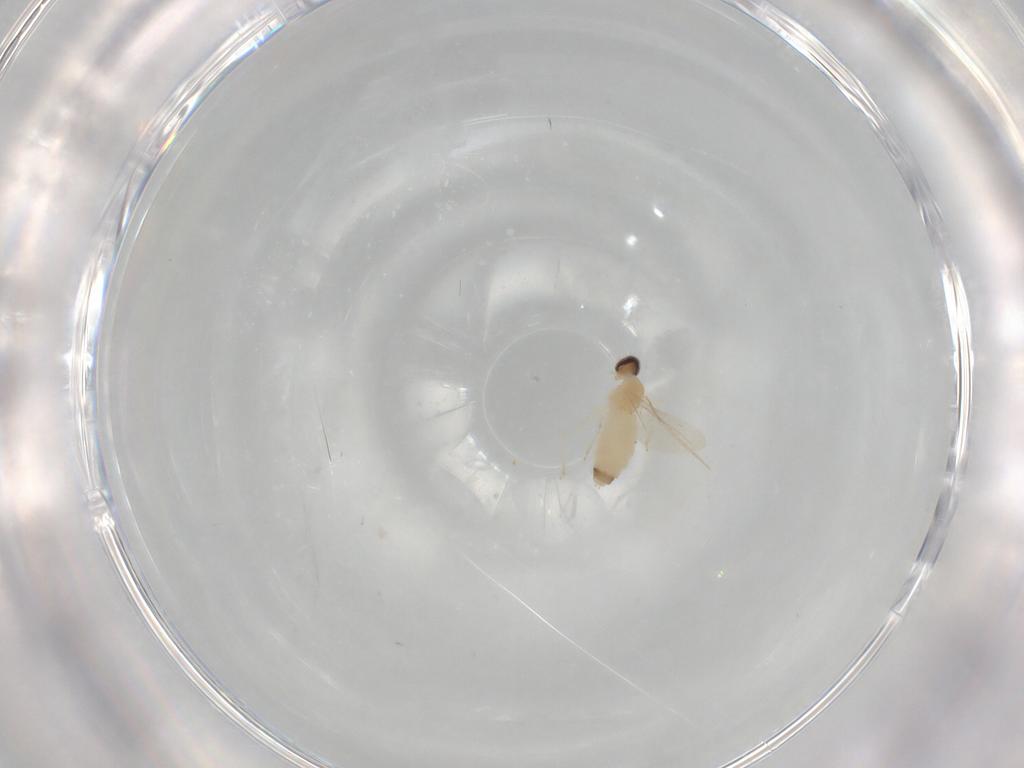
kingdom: Animalia
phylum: Arthropoda
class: Insecta
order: Diptera
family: Cecidomyiidae
